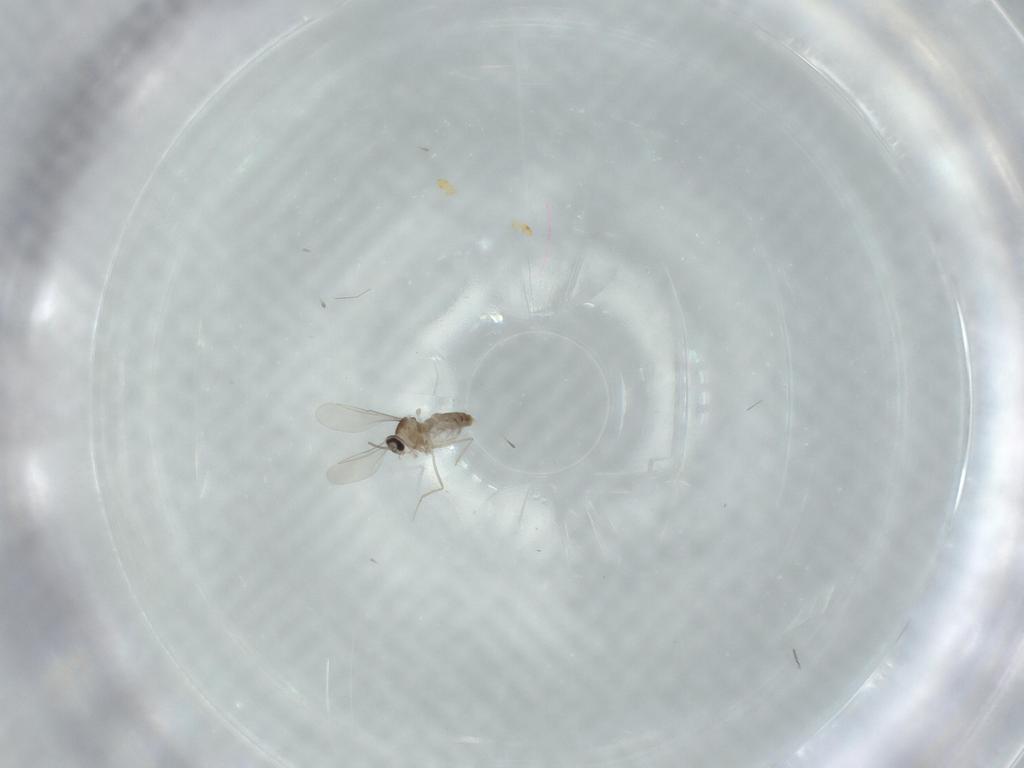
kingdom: Animalia
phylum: Arthropoda
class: Insecta
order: Diptera
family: Cecidomyiidae
